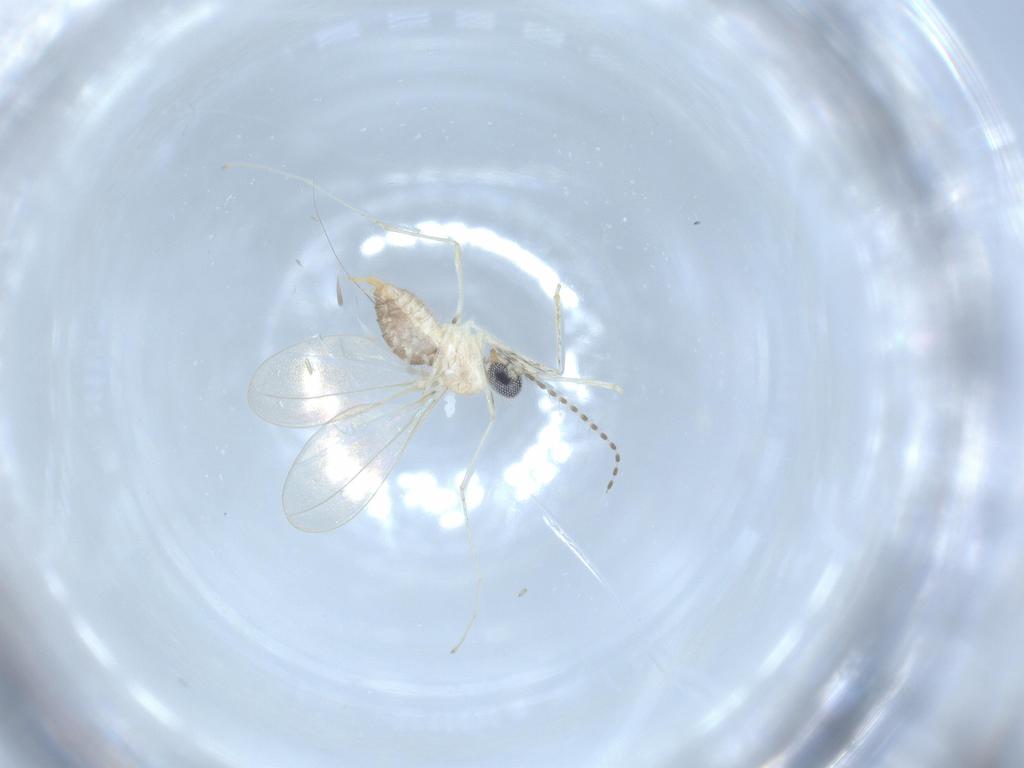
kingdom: Animalia
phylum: Arthropoda
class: Insecta
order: Diptera
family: Cecidomyiidae
